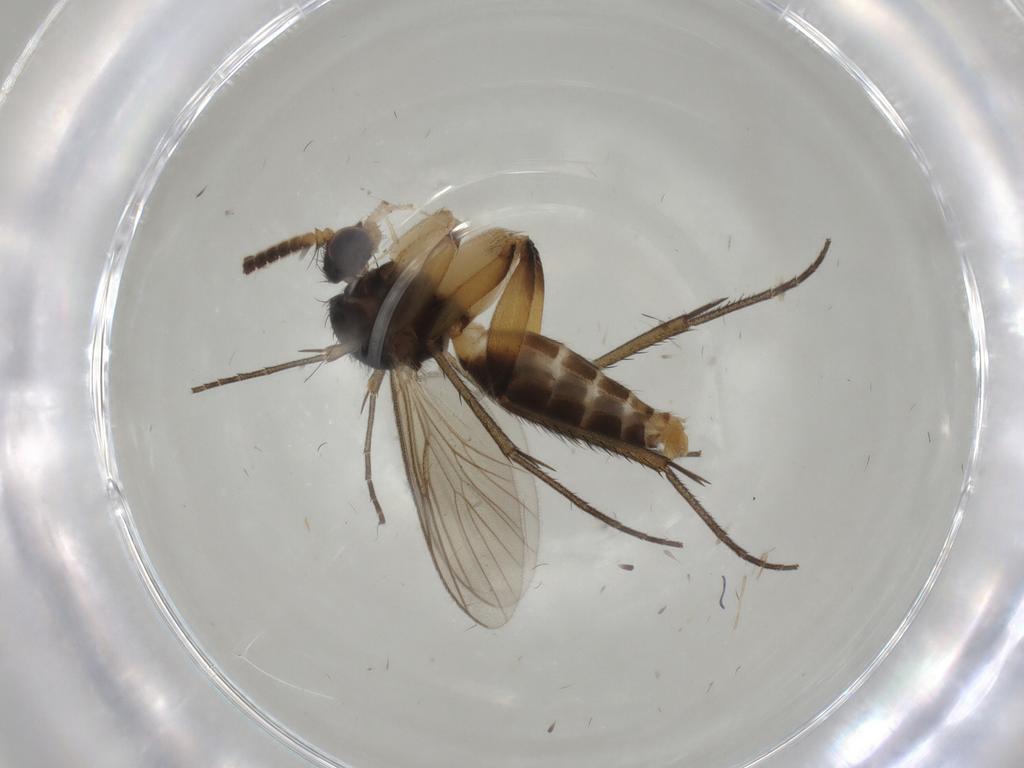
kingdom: Animalia
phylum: Arthropoda
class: Insecta
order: Diptera
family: Mycetophilidae
